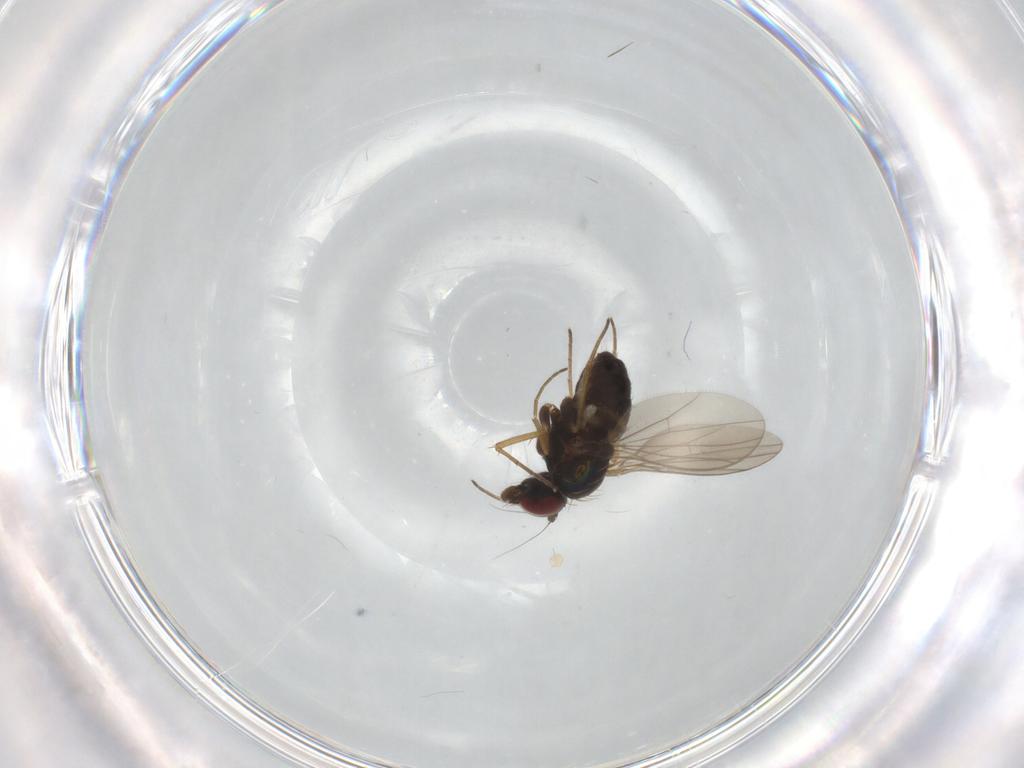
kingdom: Animalia
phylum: Arthropoda
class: Insecta
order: Diptera
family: Dolichopodidae
